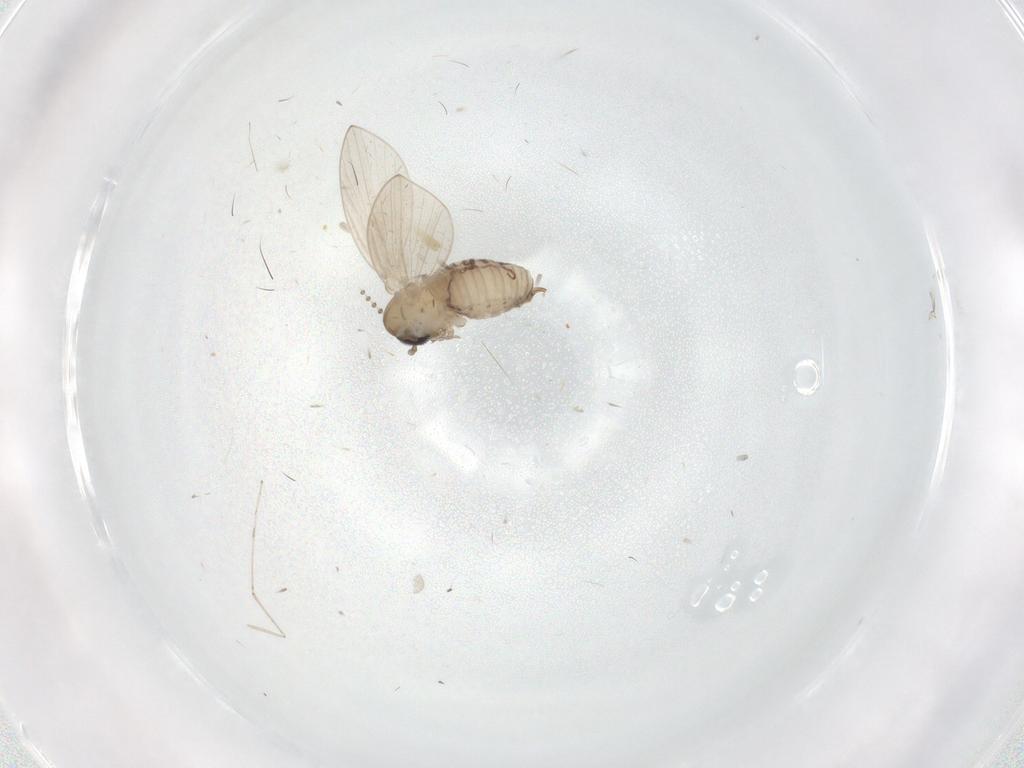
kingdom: Animalia
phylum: Arthropoda
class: Insecta
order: Diptera
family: Psychodidae
